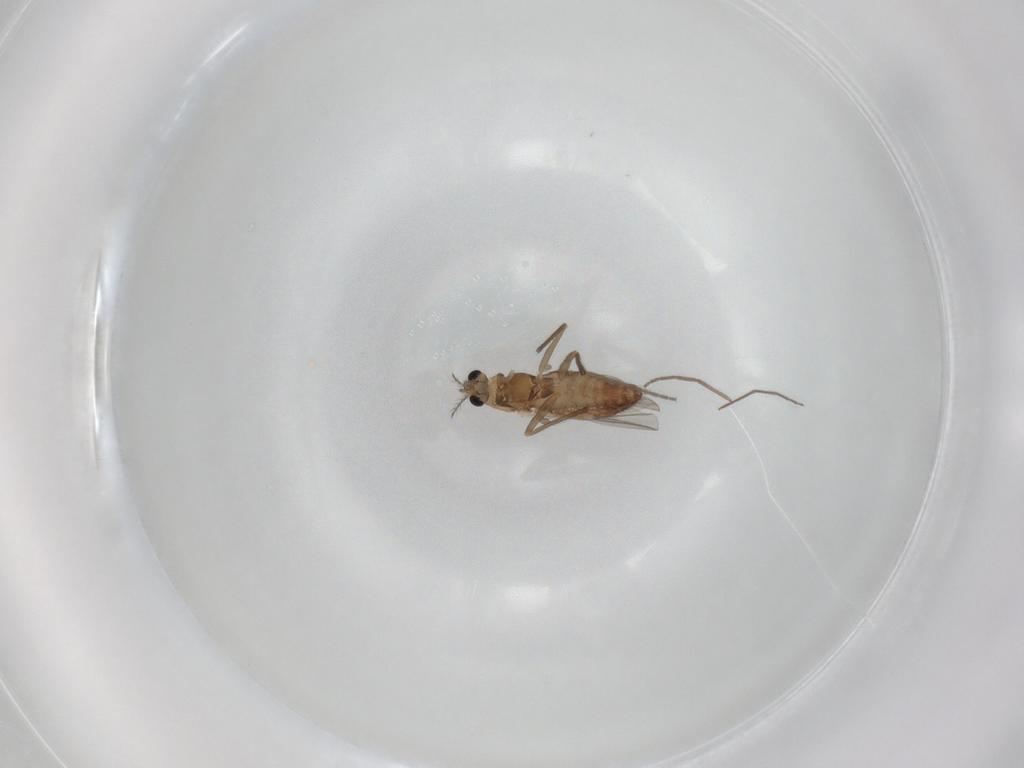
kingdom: Animalia
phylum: Arthropoda
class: Insecta
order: Diptera
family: Chironomidae
